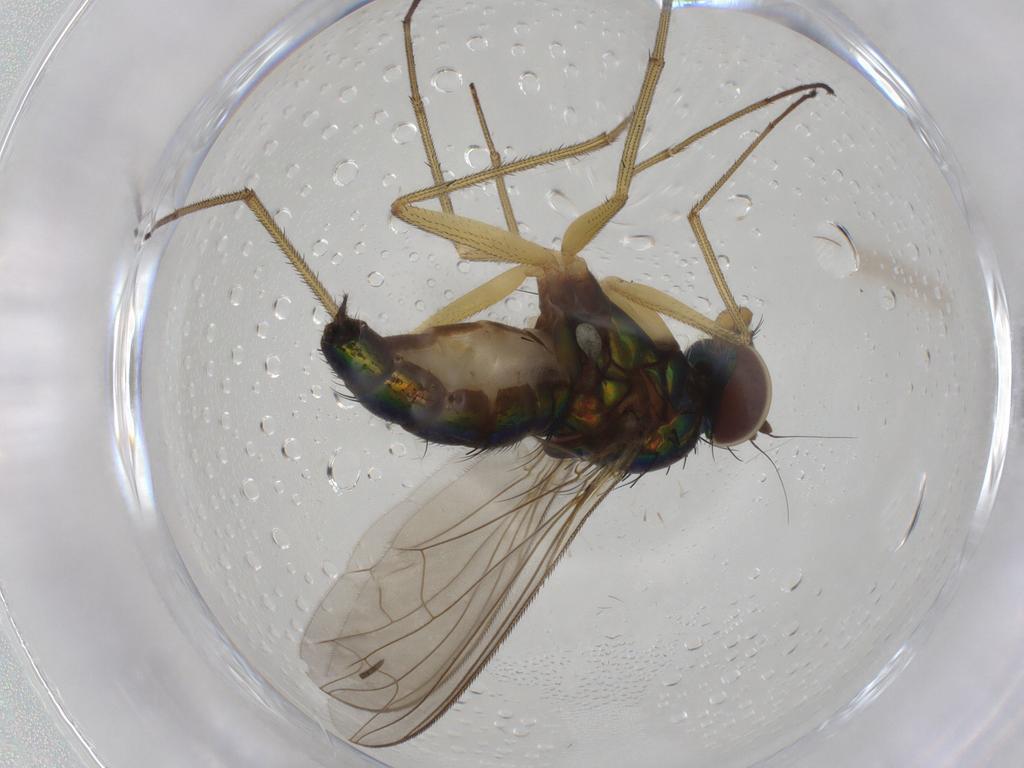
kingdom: Animalia
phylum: Arthropoda
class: Insecta
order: Diptera
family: Dolichopodidae
